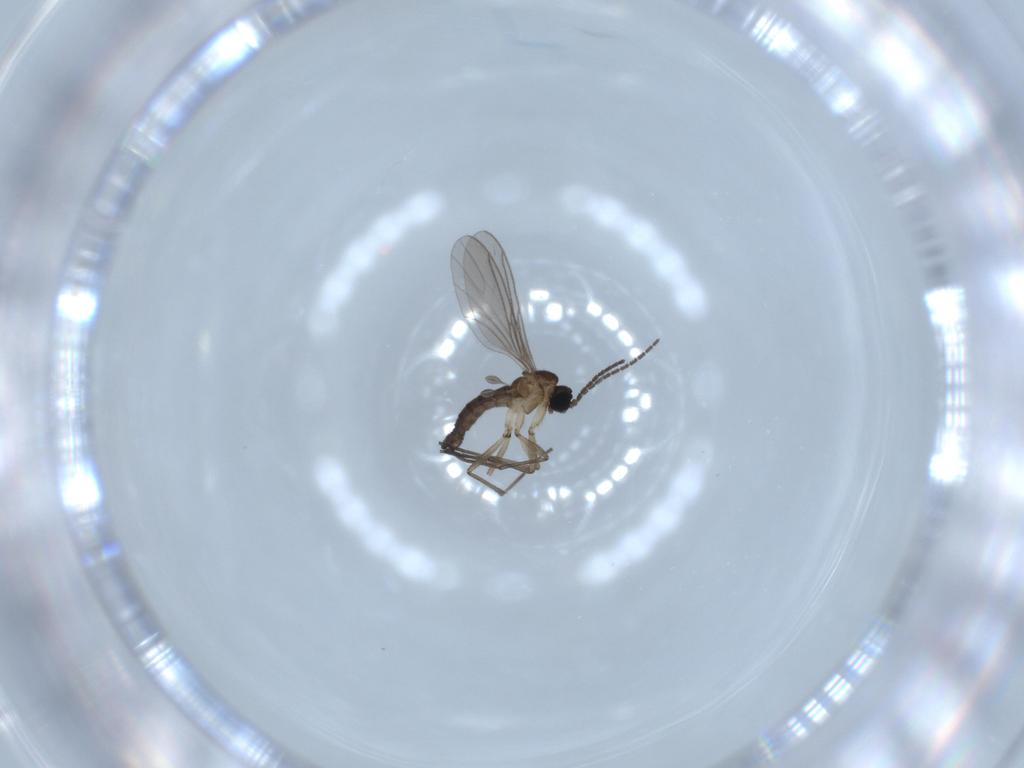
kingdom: Animalia
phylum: Arthropoda
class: Insecta
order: Diptera
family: Sciaridae
